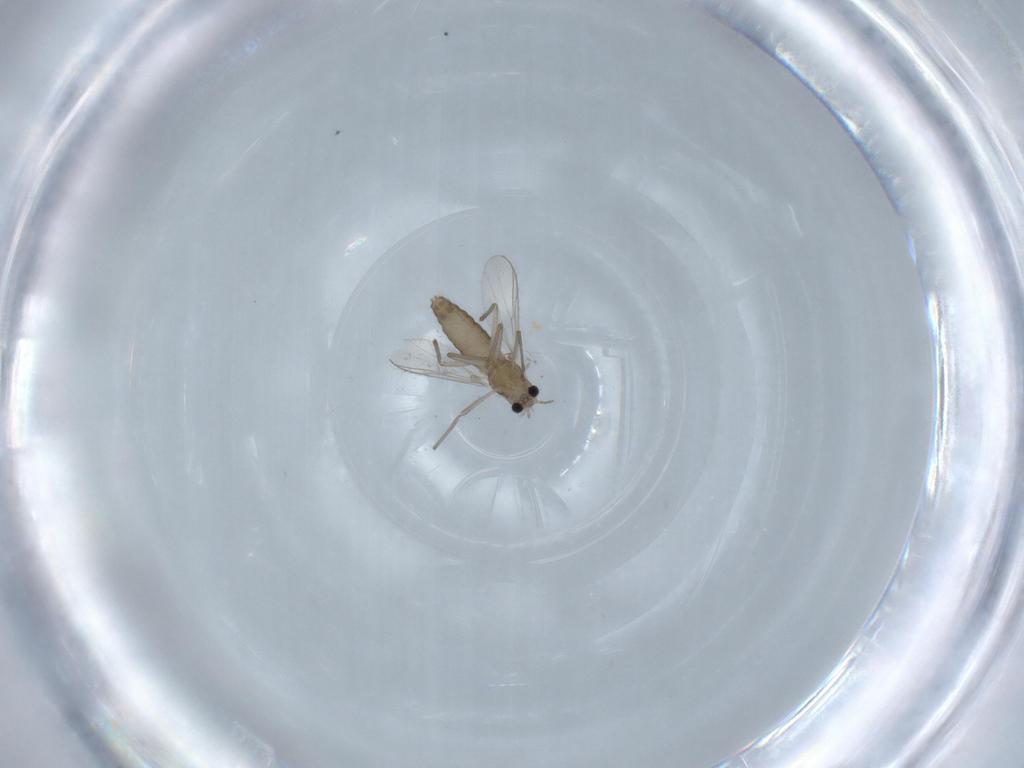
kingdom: Animalia
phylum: Arthropoda
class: Insecta
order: Diptera
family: Chironomidae
